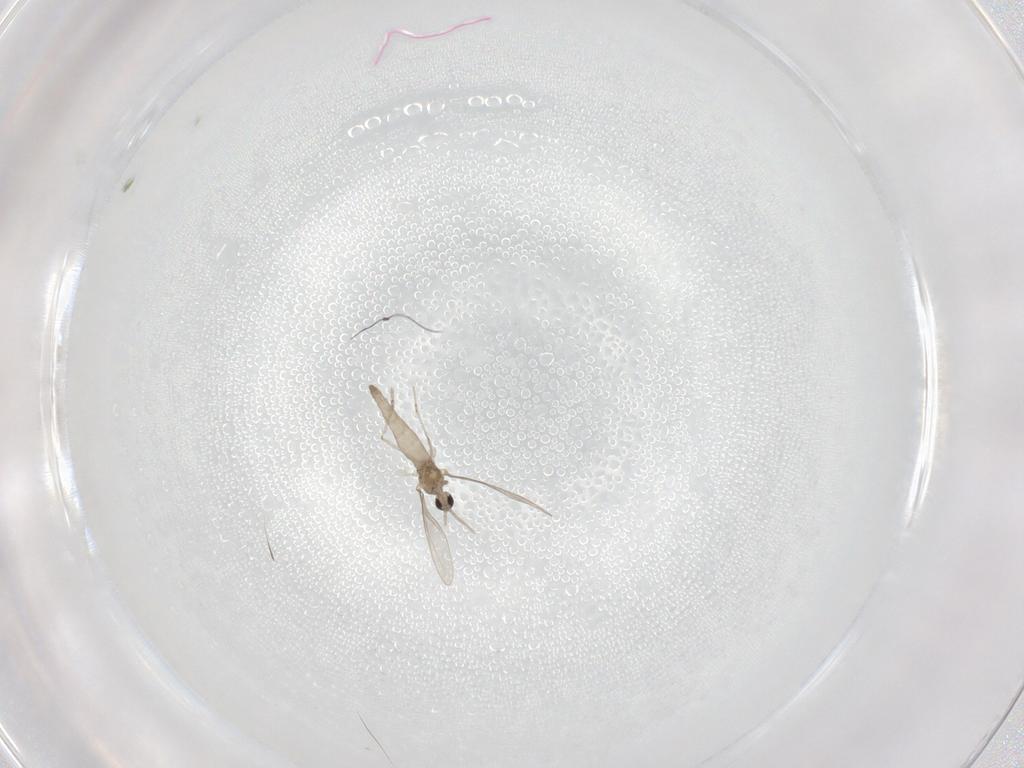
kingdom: Animalia
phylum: Arthropoda
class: Insecta
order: Diptera
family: Cecidomyiidae
